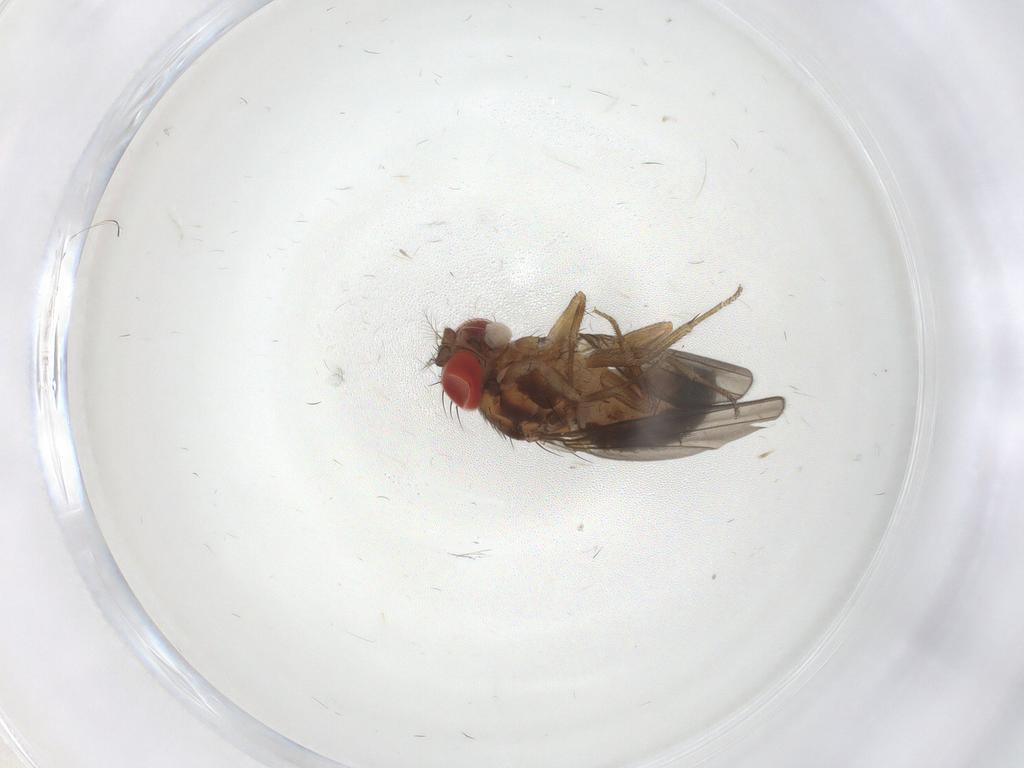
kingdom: Animalia
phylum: Arthropoda
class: Insecta
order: Diptera
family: Drosophilidae
